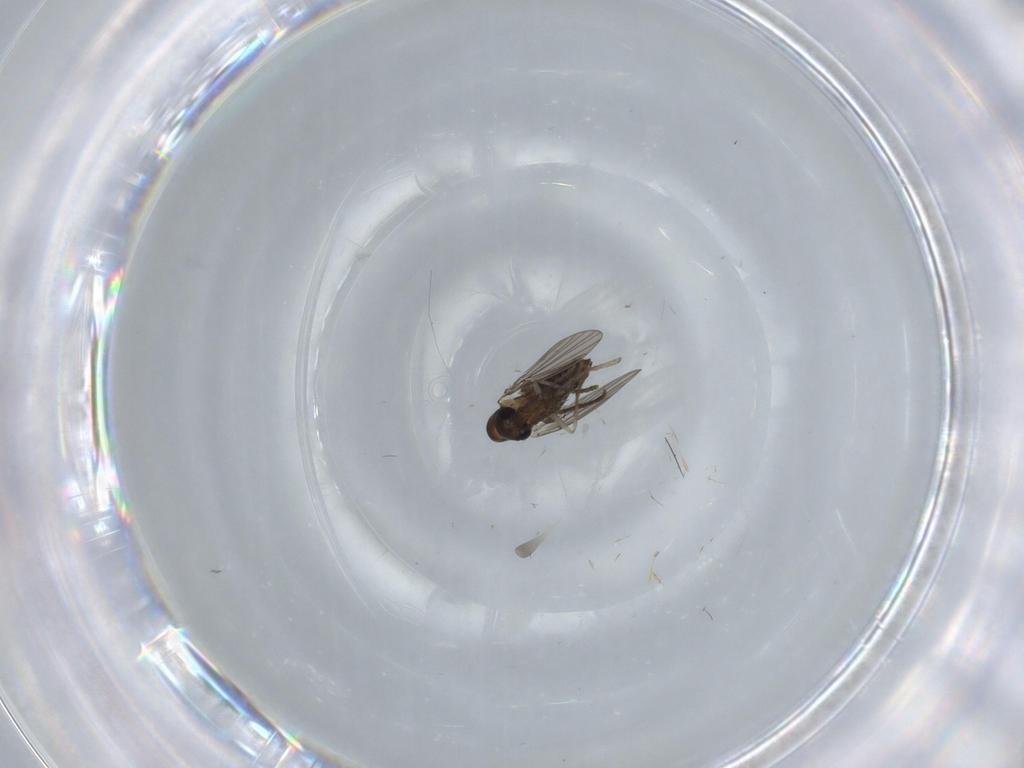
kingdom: Animalia
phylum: Arthropoda
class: Insecta
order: Diptera
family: Psychodidae
